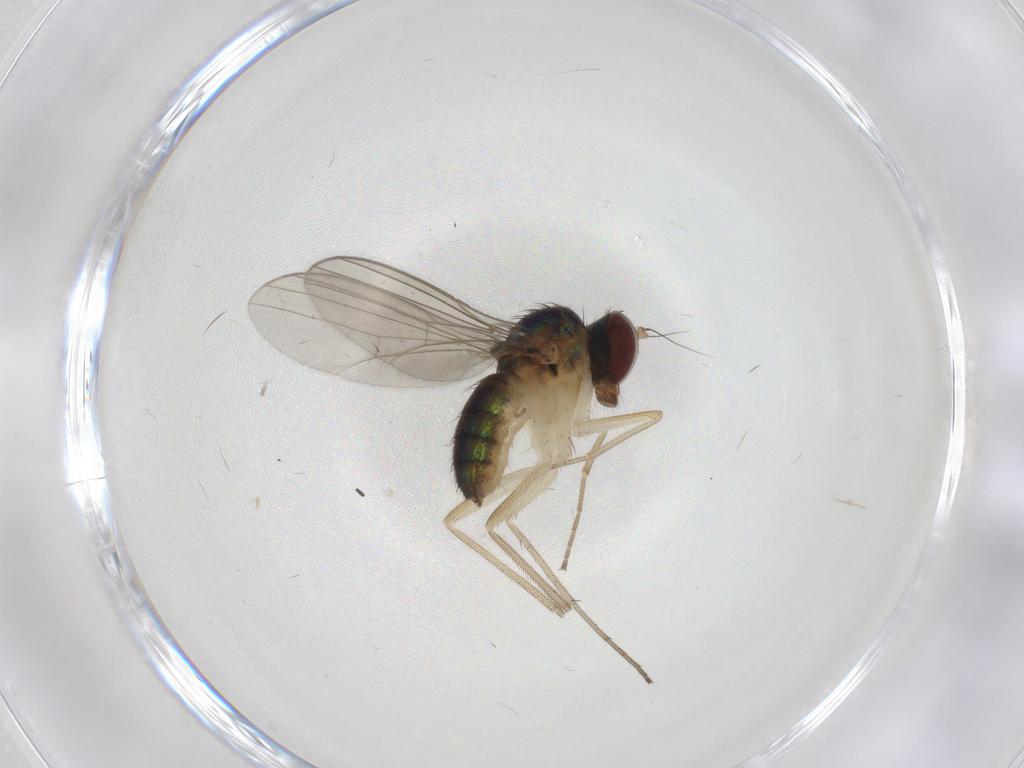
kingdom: Animalia
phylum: Arthropoda
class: Insecta
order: Diptera
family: Dolichopodidae
